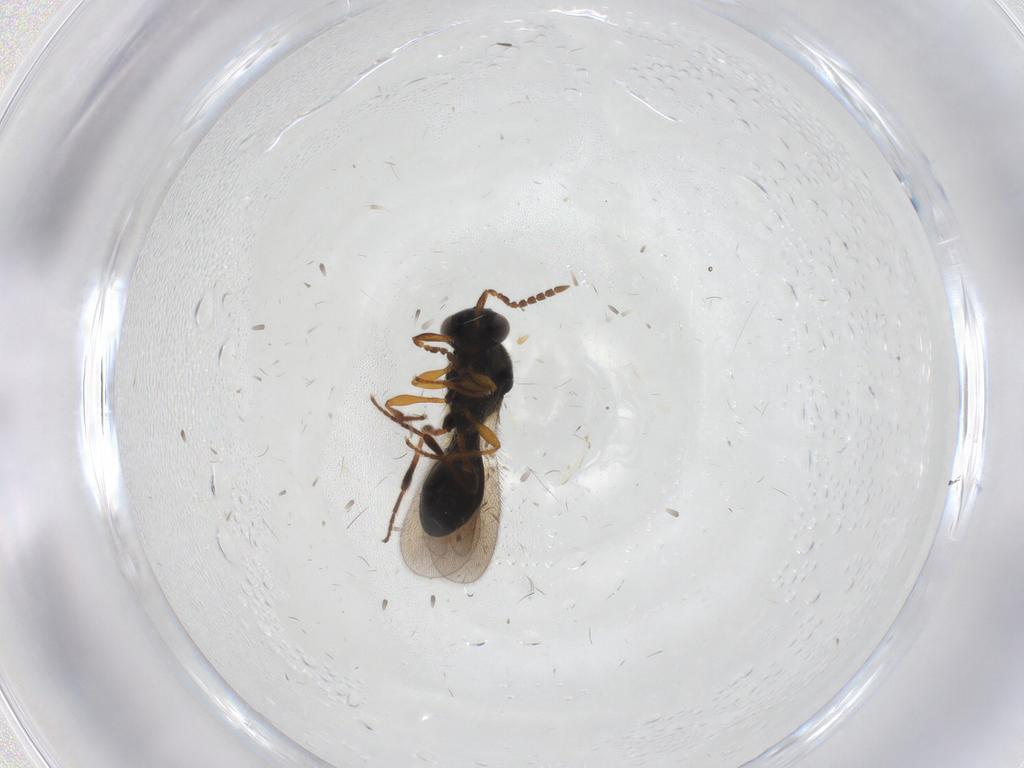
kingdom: Animalia
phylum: Arthropoda
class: Insecta
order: Hymenoptera
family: Platygastridae
